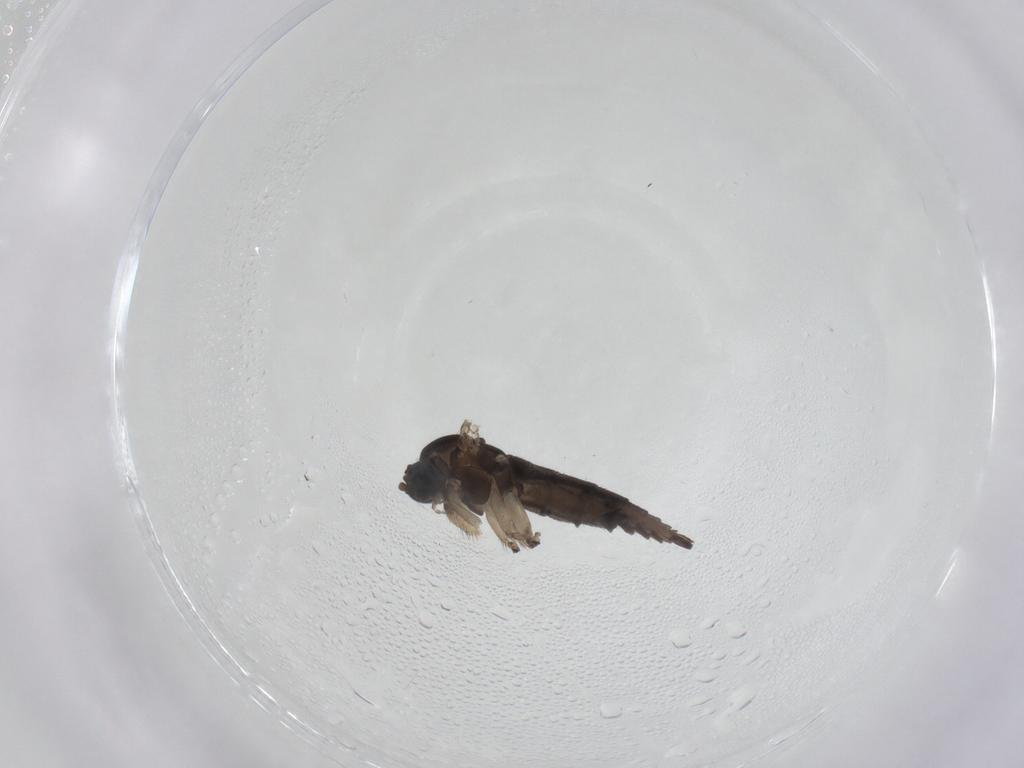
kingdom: Animalia
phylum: Arthropoda
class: Insecta
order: Diptera
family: Sciaridae
